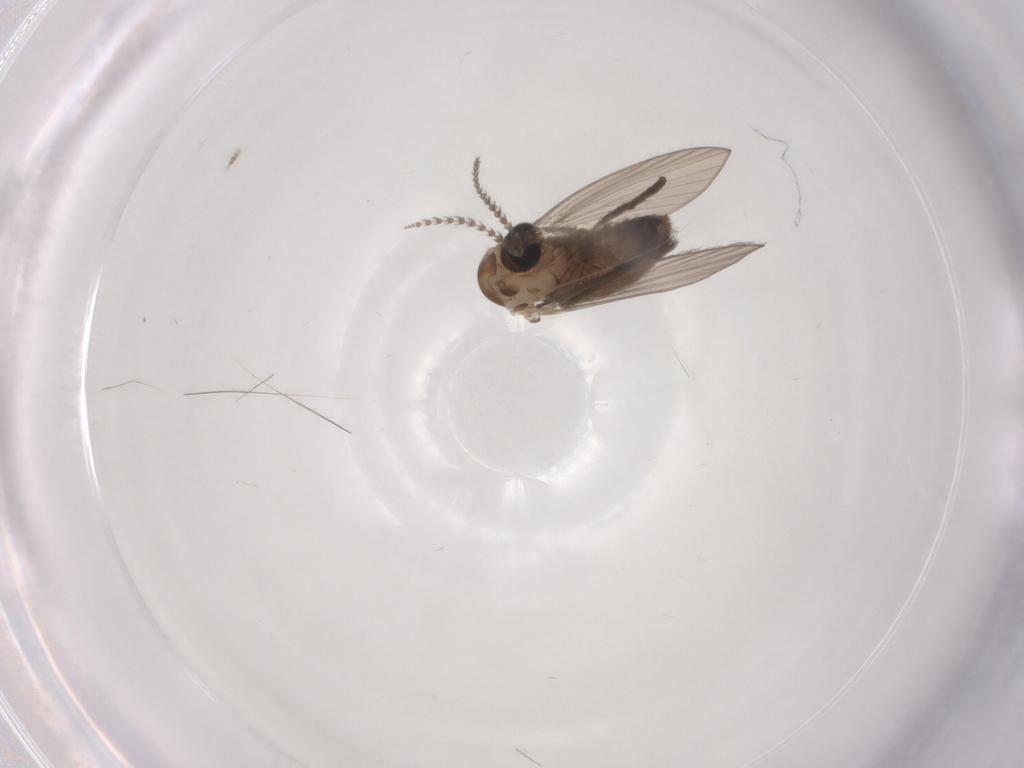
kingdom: Animalia
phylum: Arthropoda
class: Insecta
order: Diptera
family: Psychodidae
